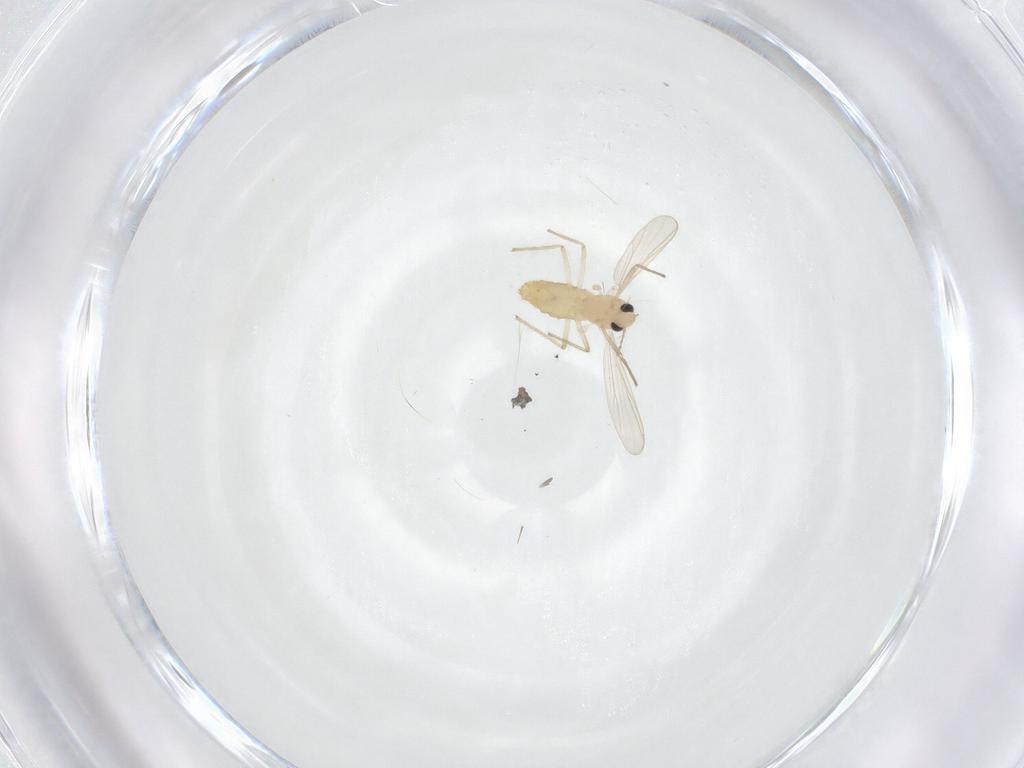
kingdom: Animalia
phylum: Arthropoda
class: Insecta
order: Diptera
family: Chironomidae
